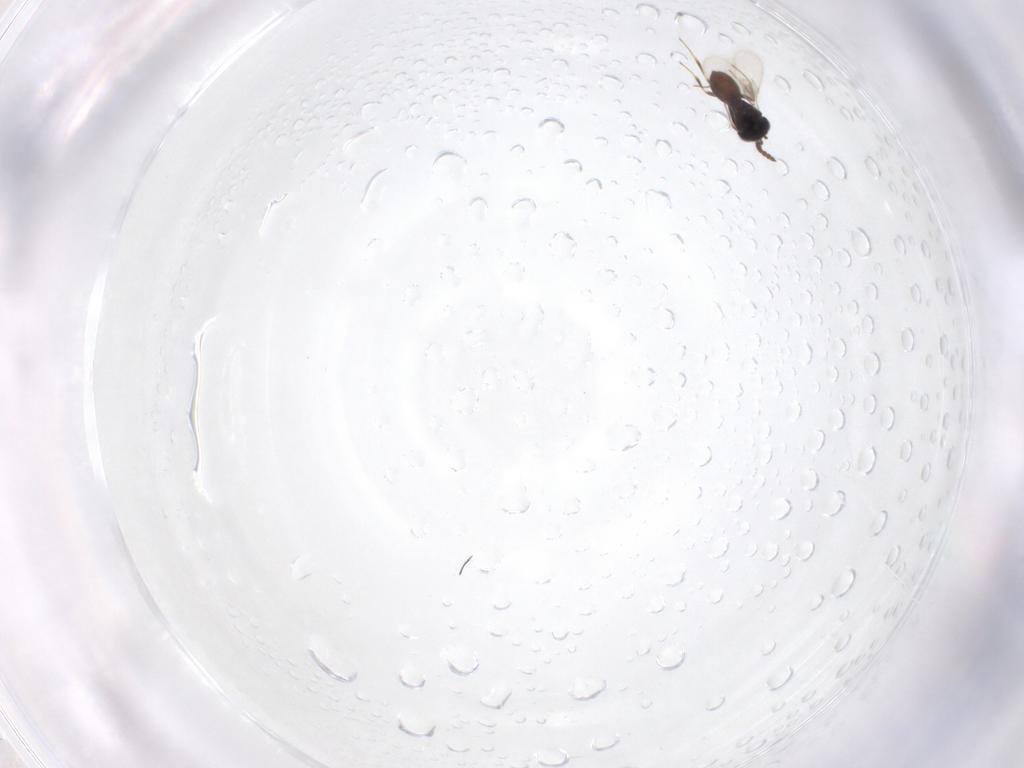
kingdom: Animalia
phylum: Arthropoda
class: Insecta
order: Hymenoptera
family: Scelionidae
